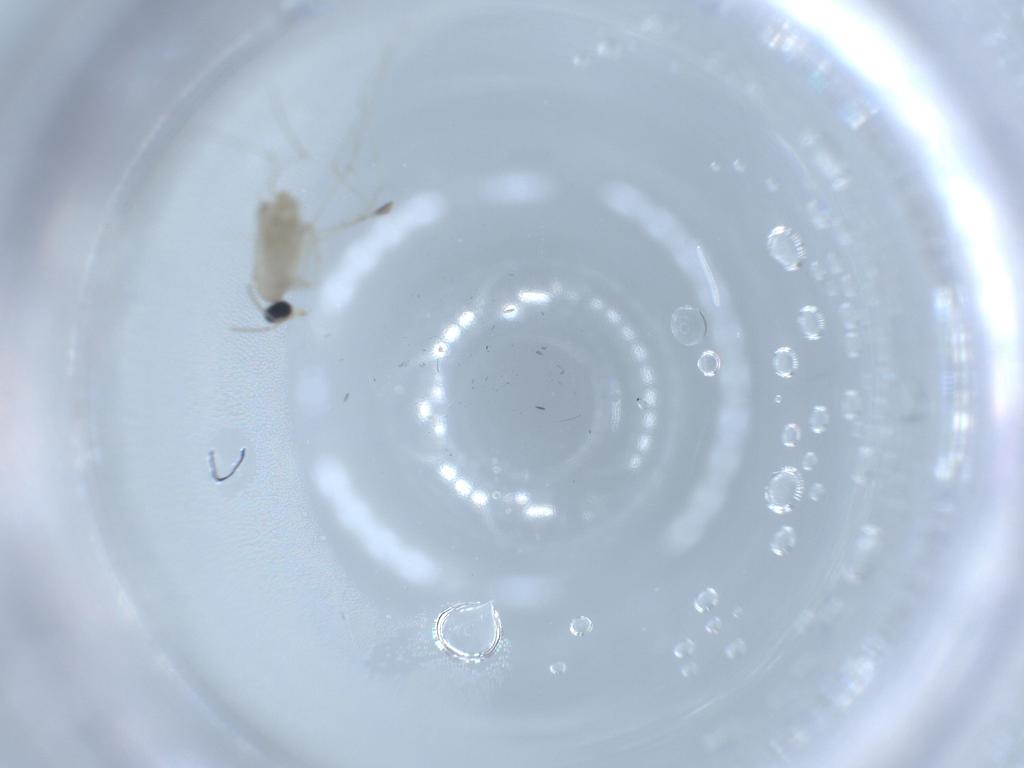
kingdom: Animalia
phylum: Arthropoda
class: Insecta
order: Diptera
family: Cecidomyiidae
